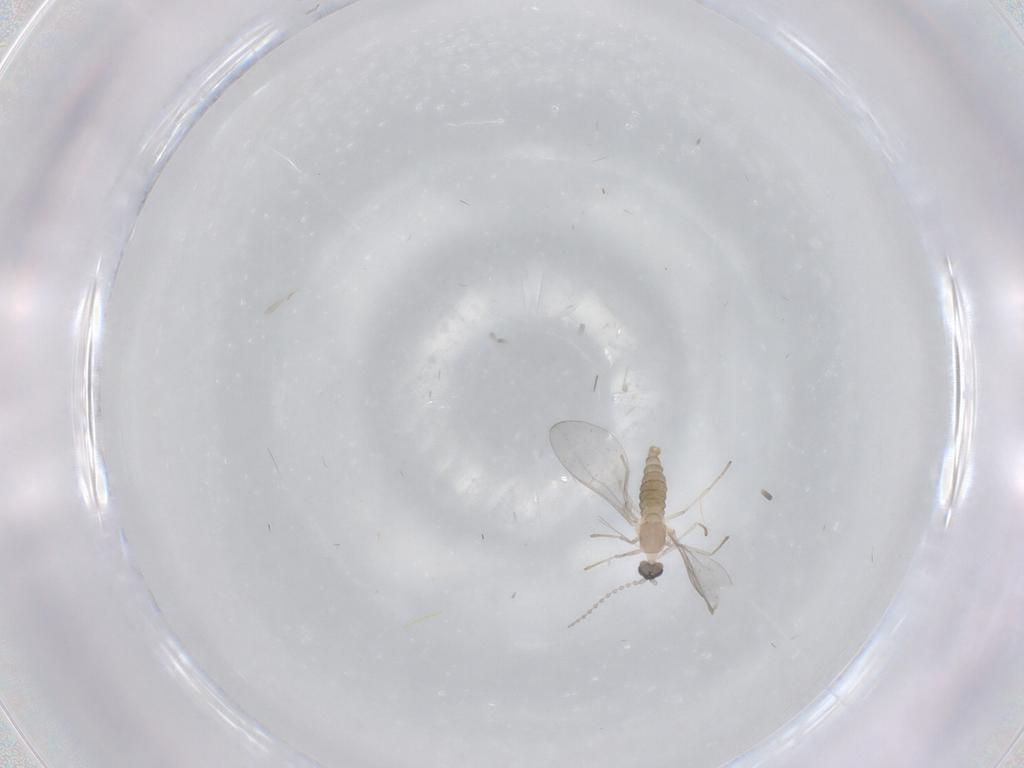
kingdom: Animalia
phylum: Arthropoda
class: Insecta
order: Diptera
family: Cecidomyiidae
